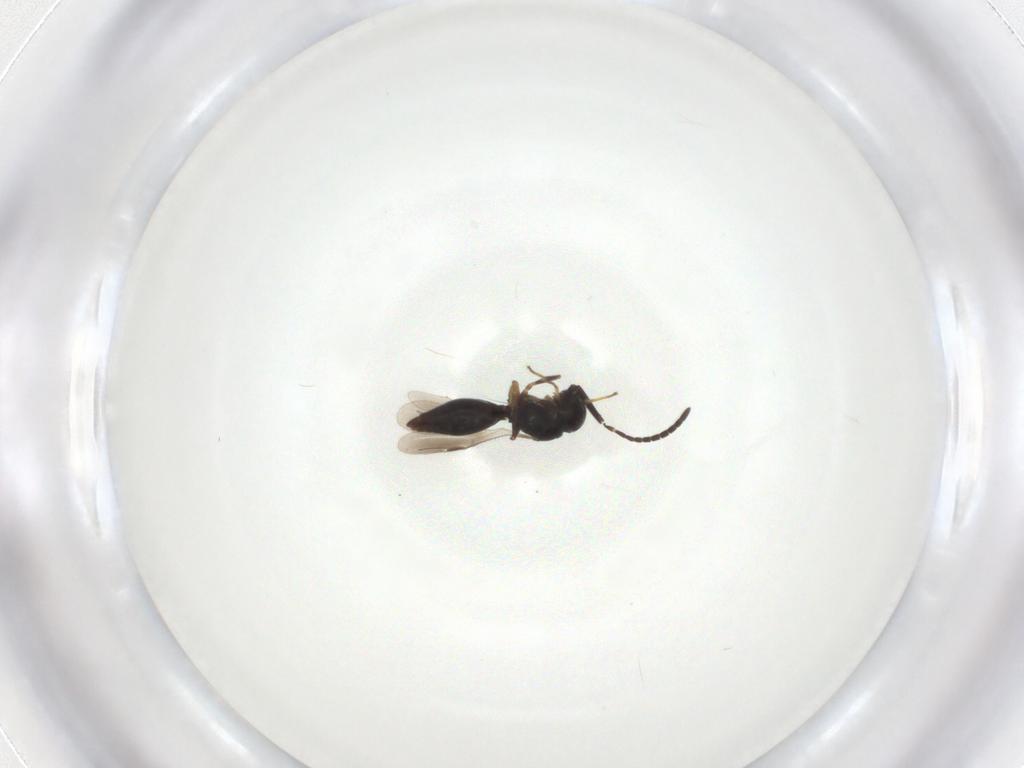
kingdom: Animalia
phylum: Arthropoda
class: Insecta
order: Hymenoptera
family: Megaspilidae
